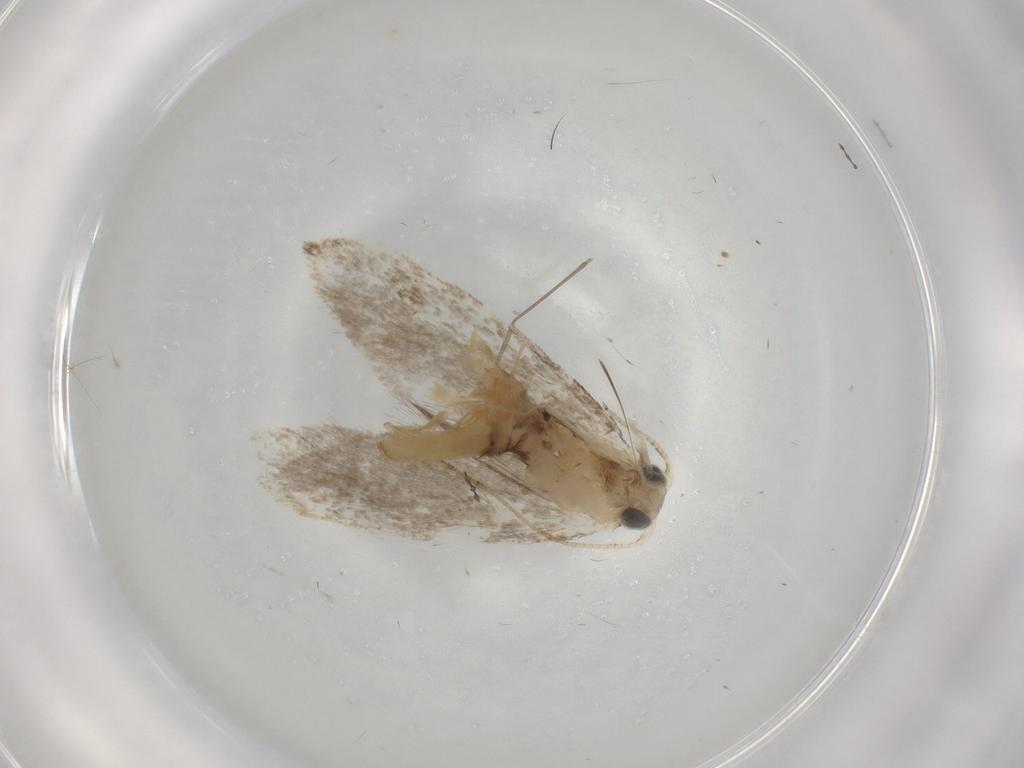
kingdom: Animalia
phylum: Arthropoda
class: Insecta
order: Lepidoptera
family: Tineidae
